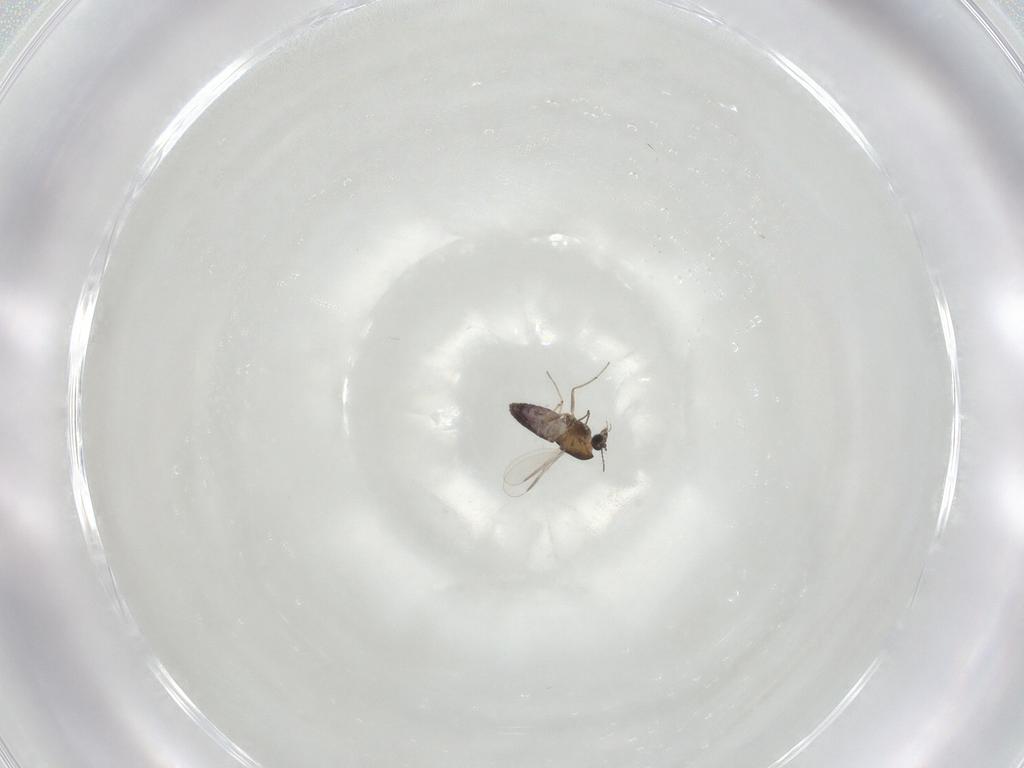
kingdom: Animalia
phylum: Arthropoda
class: Insecta
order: Diptera
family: Chironomidae
